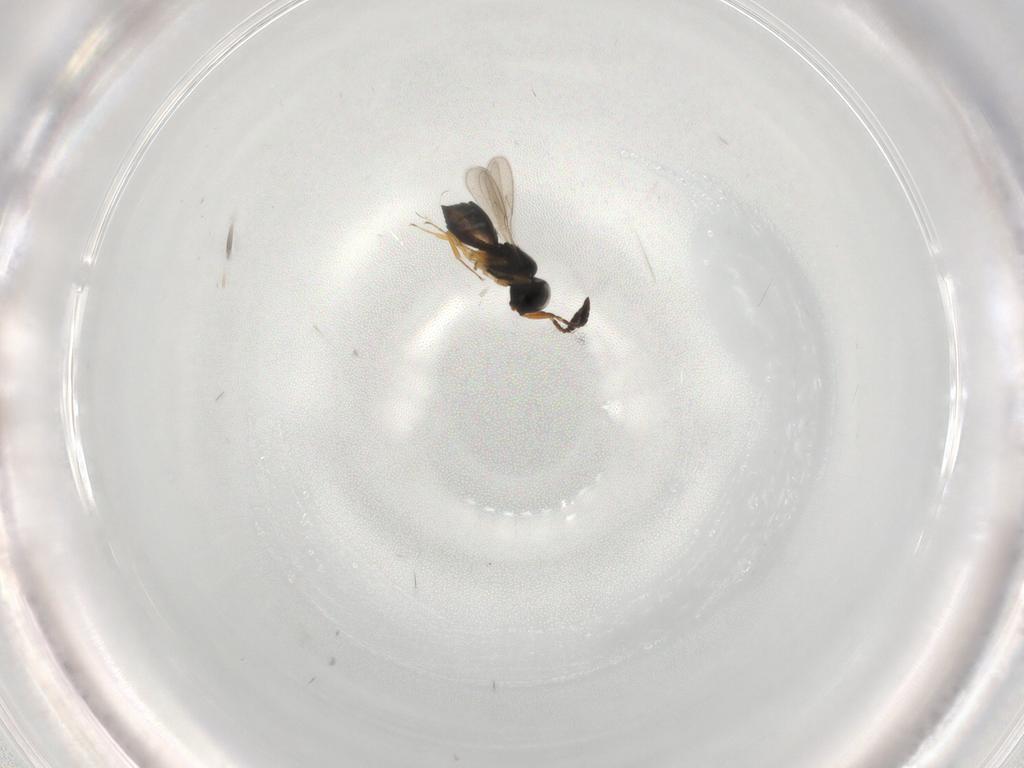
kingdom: Animalia
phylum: Arthropoda
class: Insecta
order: Hymenoptera
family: Scelionidae
